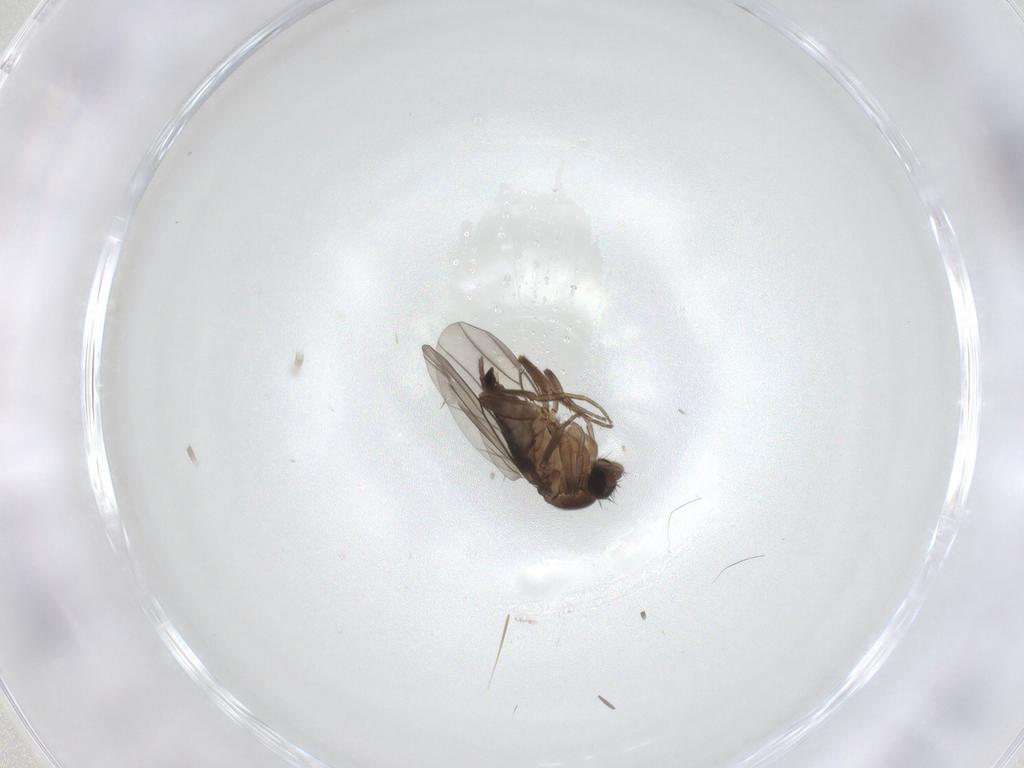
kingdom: Animalia
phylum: Arthropoda
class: Insecta
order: Diptera
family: Phoridae
